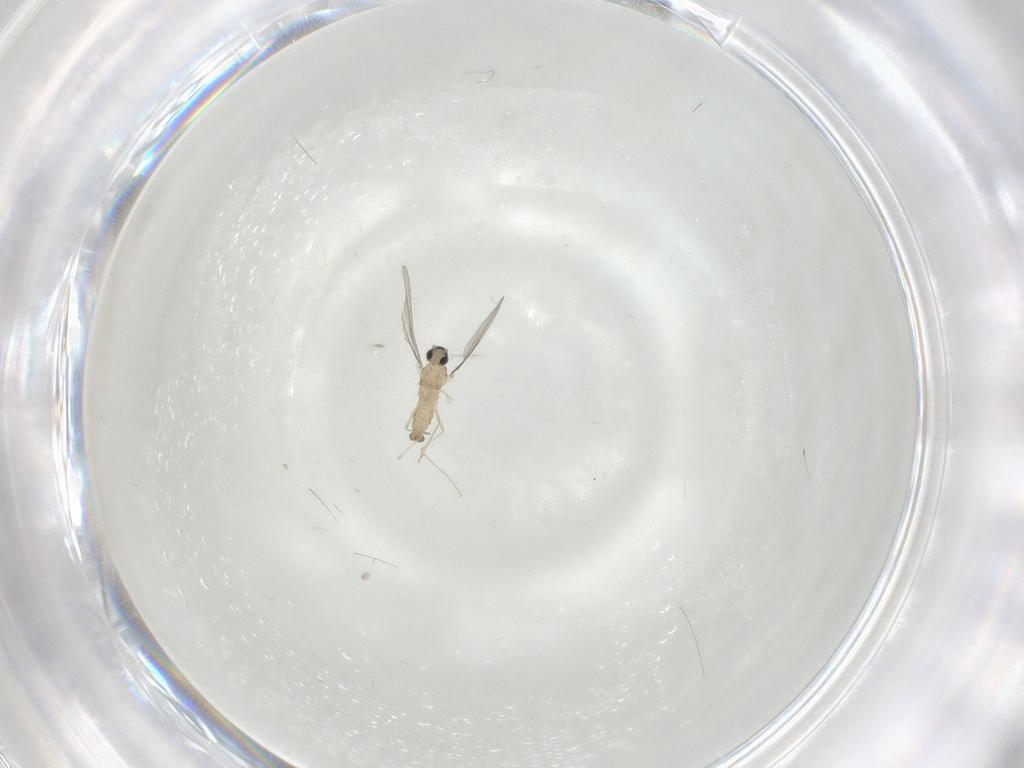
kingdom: Animalia
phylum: Arthropoda
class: Insecta
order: Diptera
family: Cecidomyiidae
